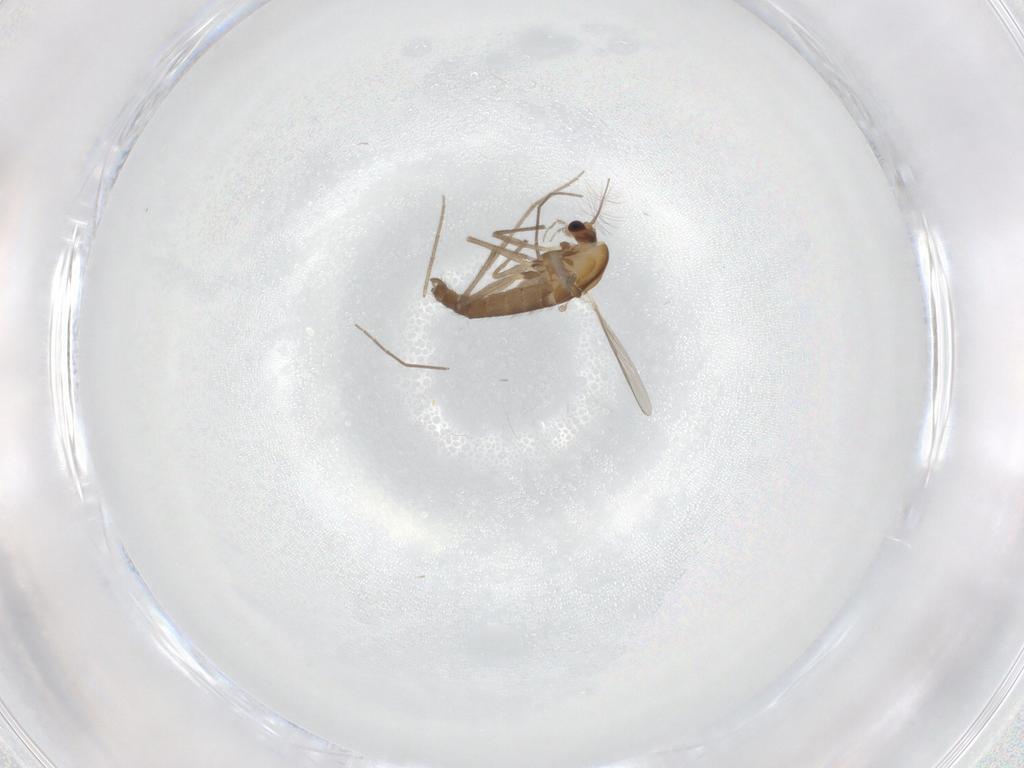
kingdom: Animalia
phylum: Arthropoda
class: Insecta
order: Diptera
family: Chironomidae
